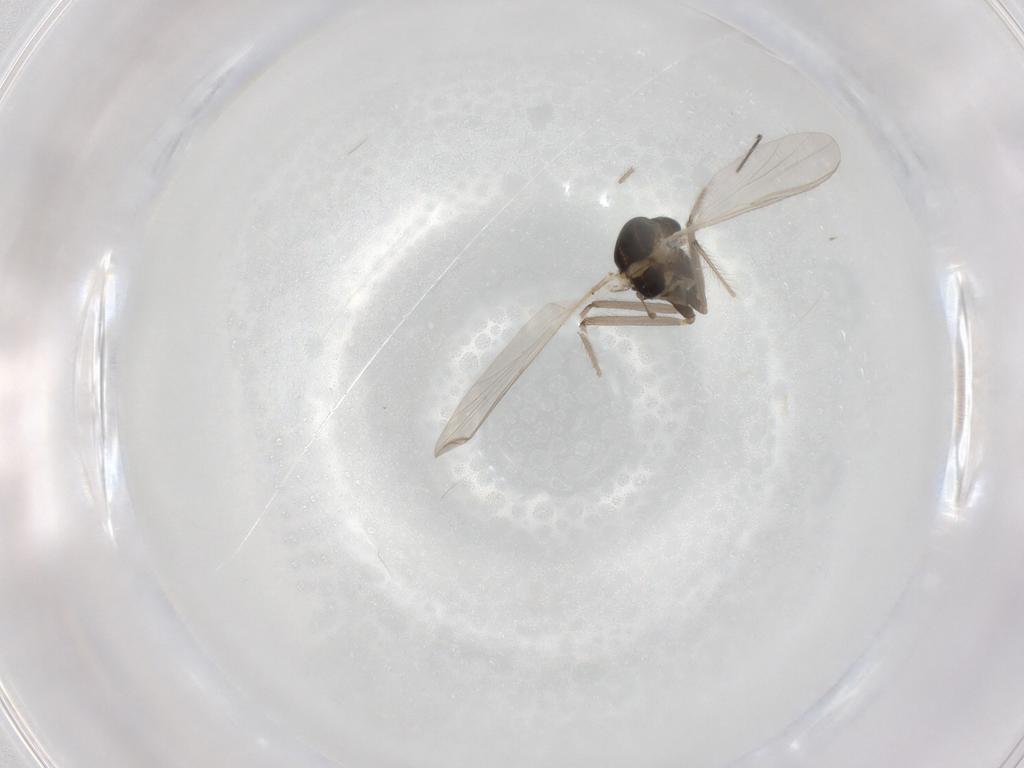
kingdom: Animalia
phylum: Arthropoda
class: Insecta
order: Diptera
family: Chironomidae
